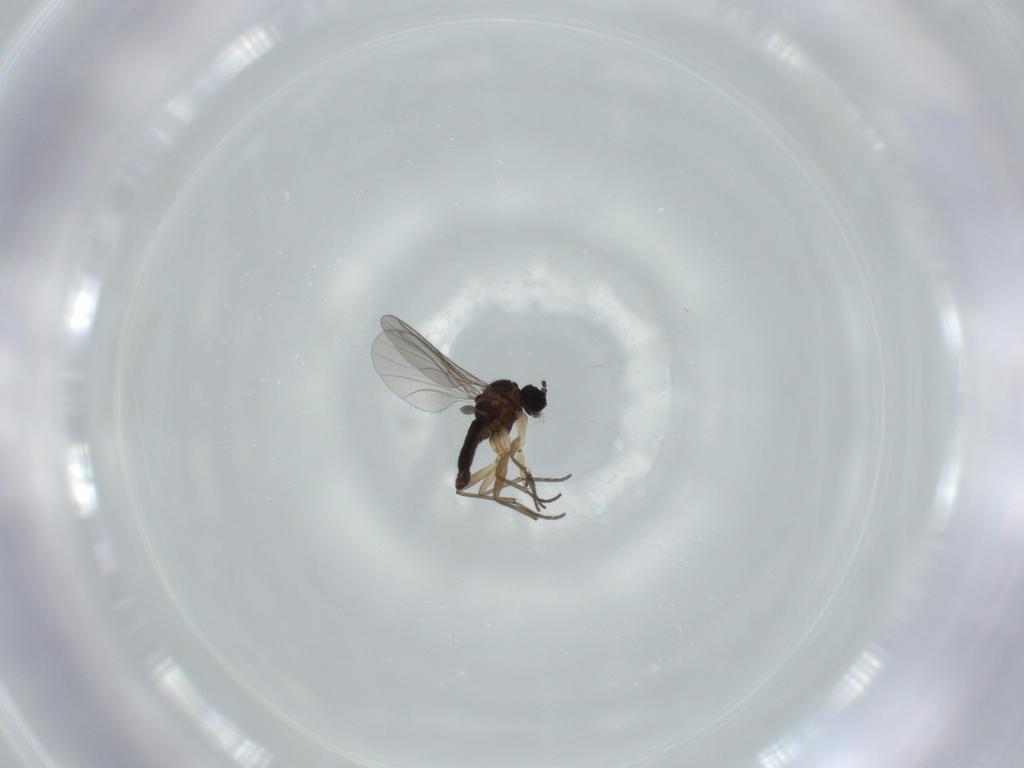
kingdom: Animalia
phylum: Arthropoda
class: Insecta
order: Diptera
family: Sciaridae
